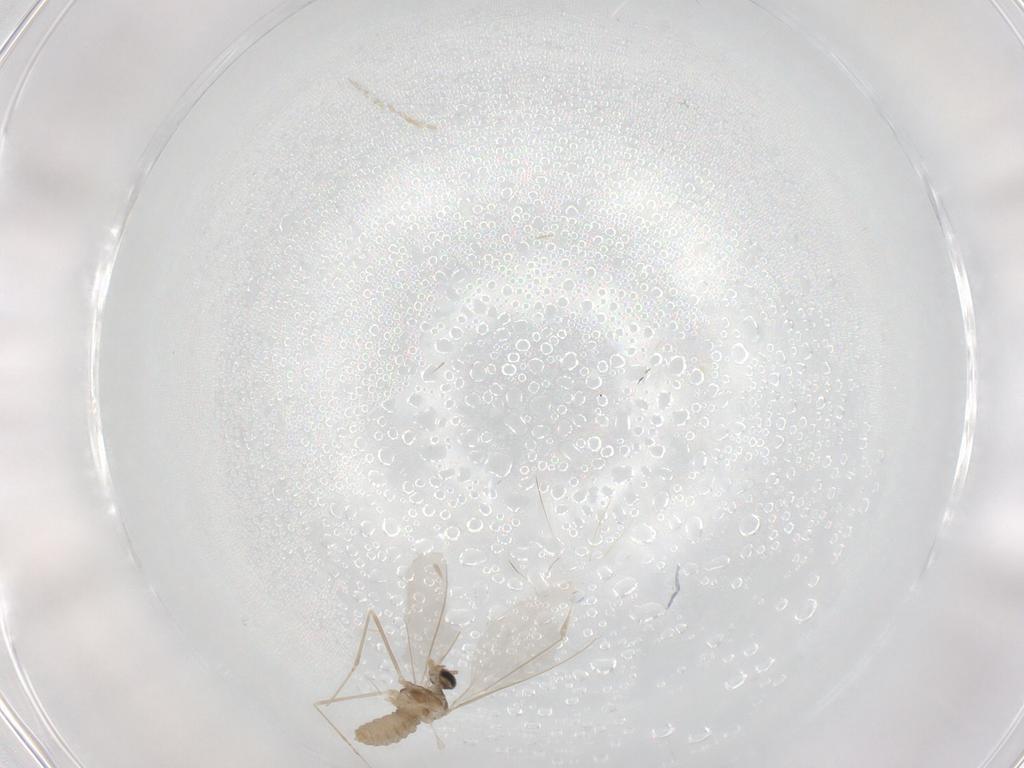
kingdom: Animalia
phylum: Arthropoda
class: Insecta
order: Diptera
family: Cecidomyiidae
